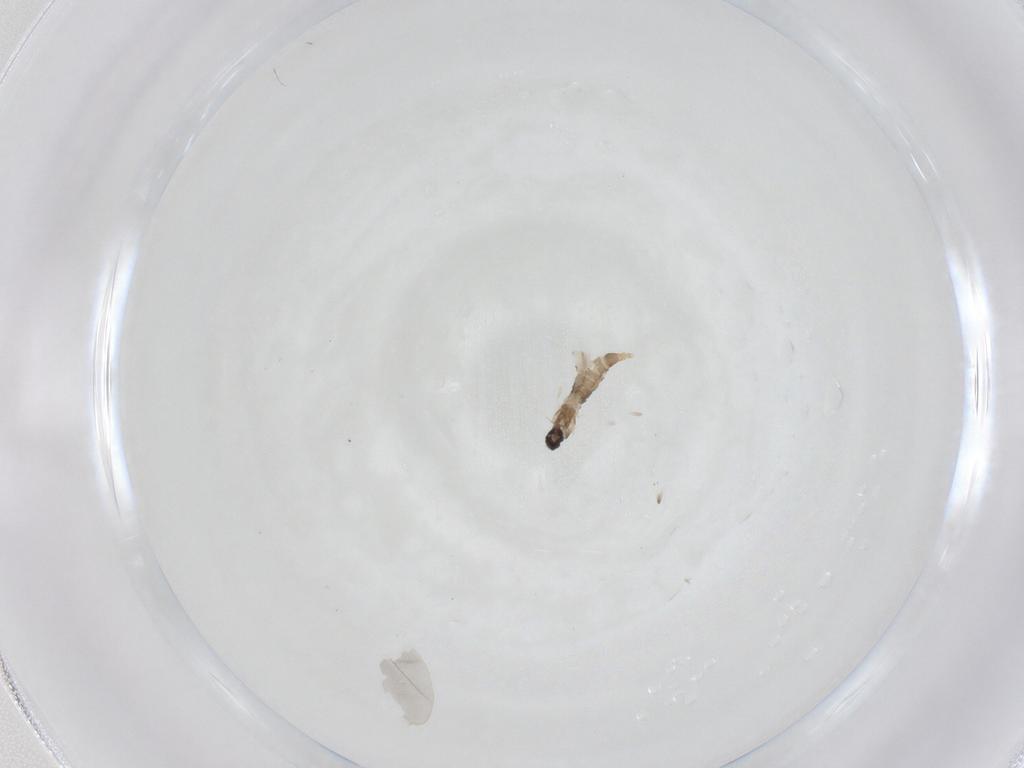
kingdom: Animalia
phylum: Arthropoda
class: Insecta
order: Diptera
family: Cecidomyiidae
